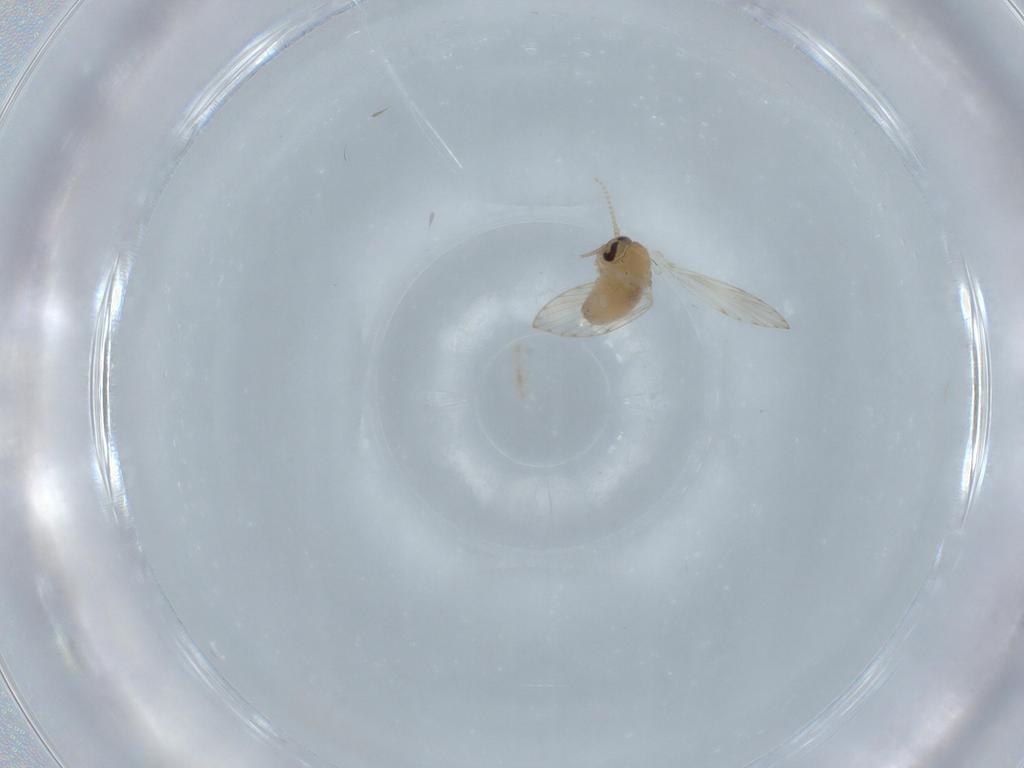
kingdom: Animalia
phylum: Arthropoda
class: Insecta
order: Diptera
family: Psychodidae
